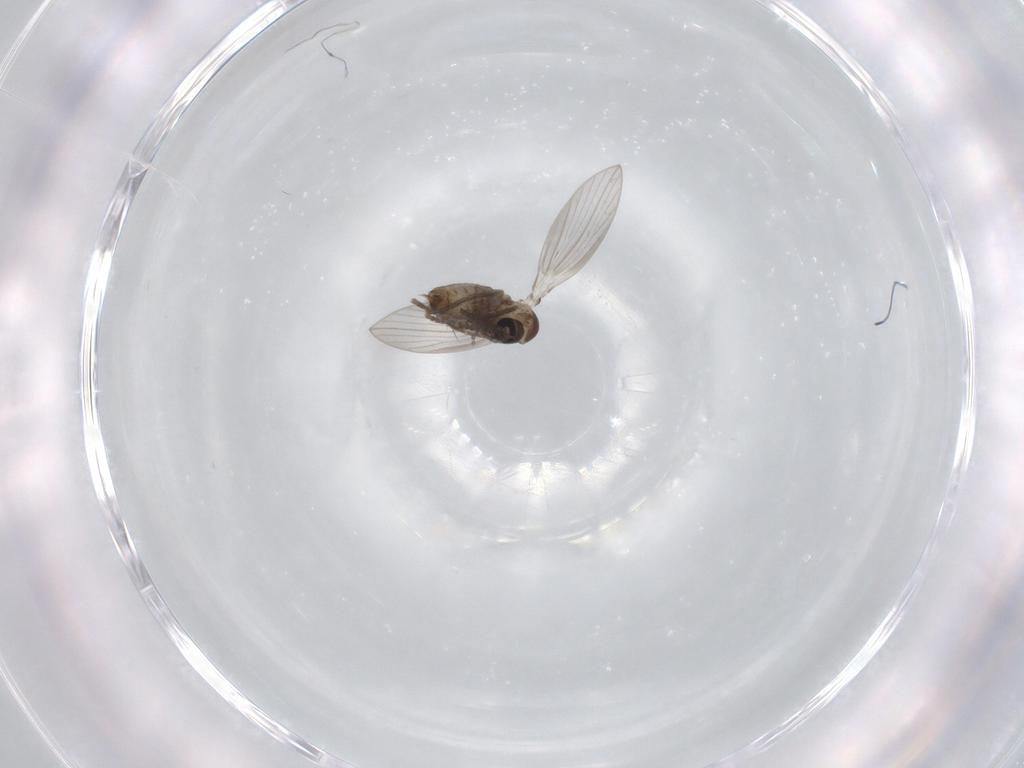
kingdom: Animalia
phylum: Arthropoda
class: Insecta
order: Diptera
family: Psychodidae
